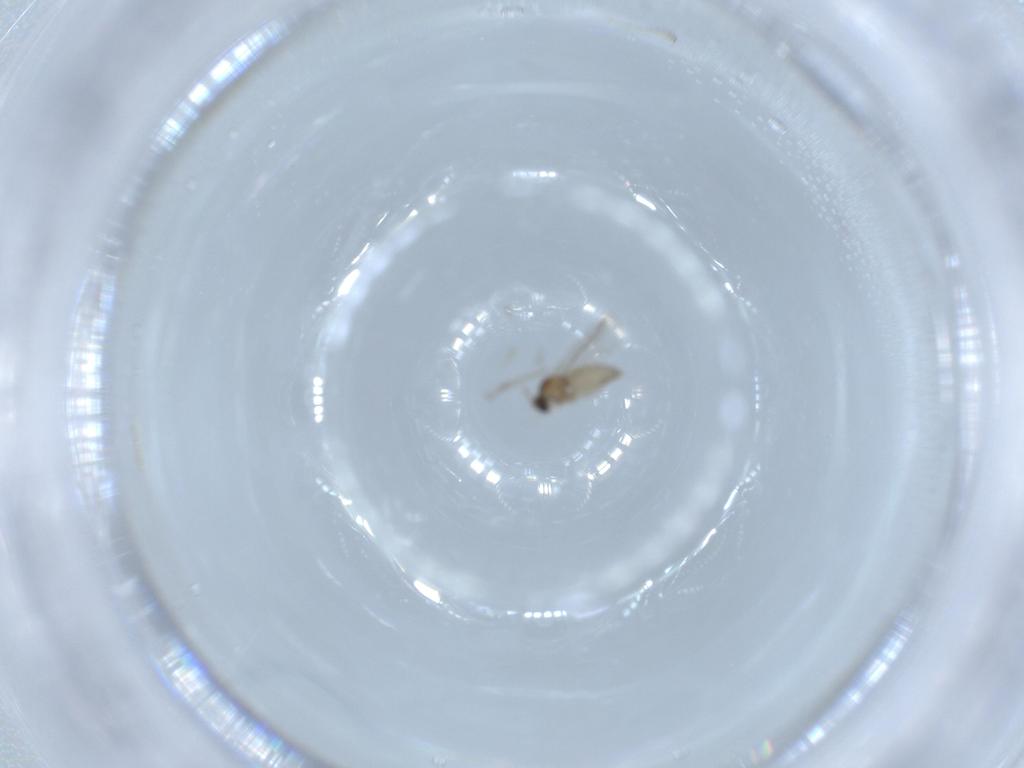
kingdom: Animalia
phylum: Arthropoda
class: Insecta
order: Diptera
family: Cecidomyiidae
